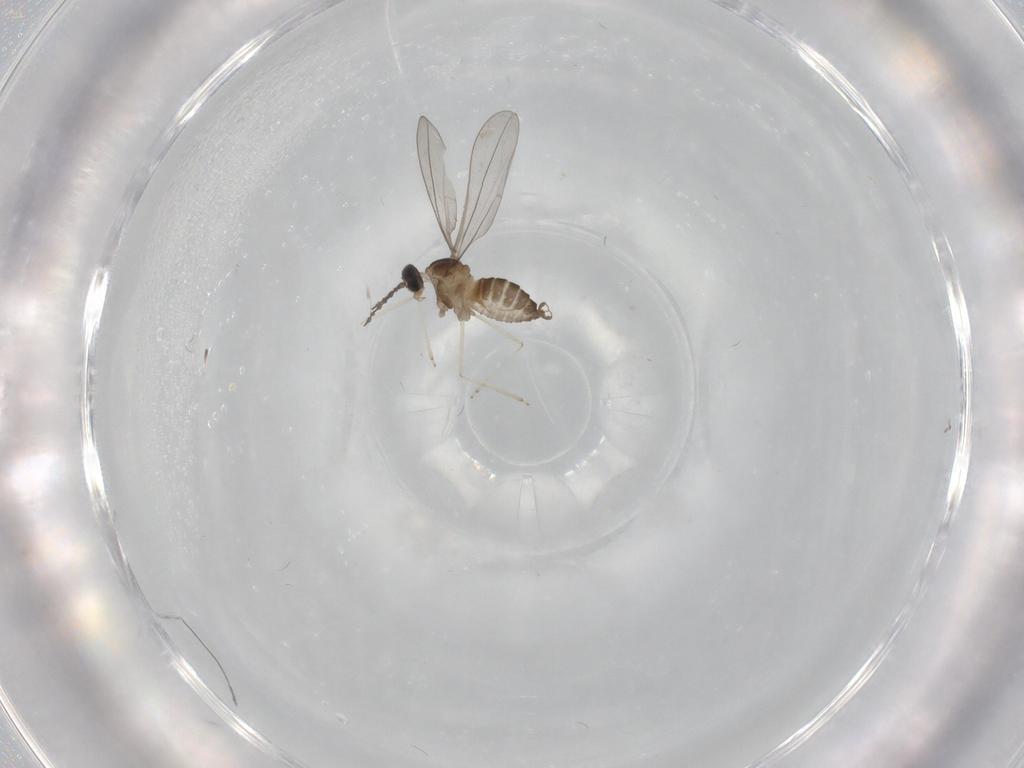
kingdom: Animalia
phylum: Arthropoda
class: Insecta
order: Diptera
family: Cecidomyiidae
